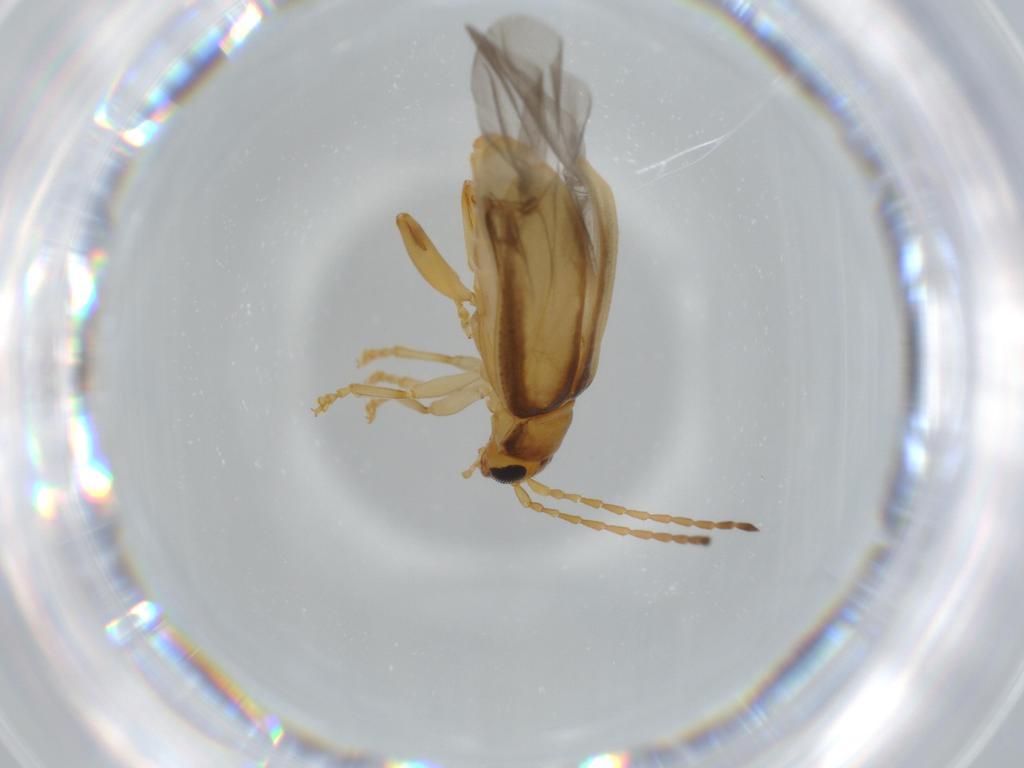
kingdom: Animalia
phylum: Arthropoda
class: Insecta
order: Coleoptera
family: Chrysomelidae
